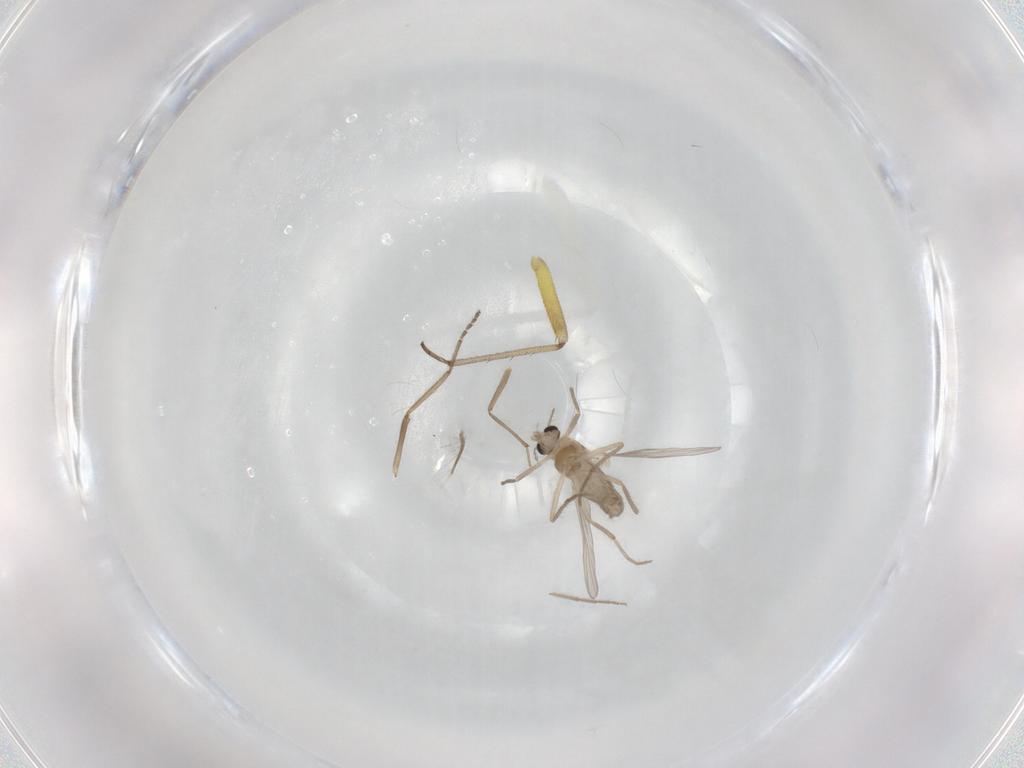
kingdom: Animalia
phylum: Arthropoda
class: Insecta
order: Diptera
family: Chironomidae
